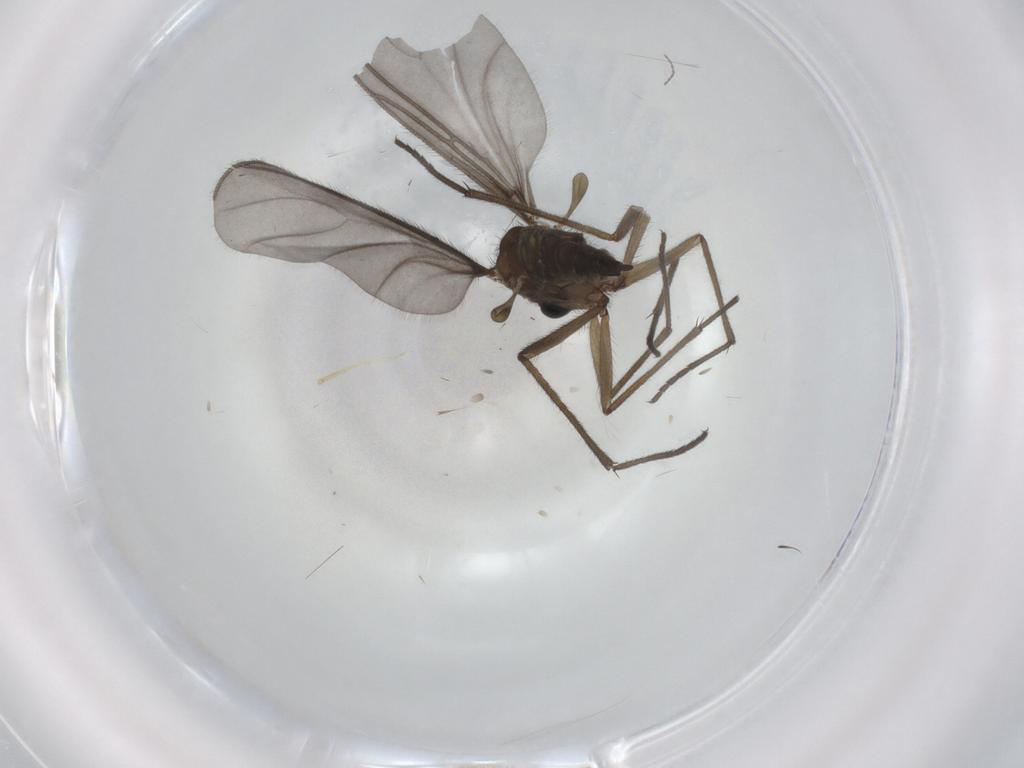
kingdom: Animalia
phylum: Arthropoda
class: Insecta
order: Diptera
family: Sciaridae
